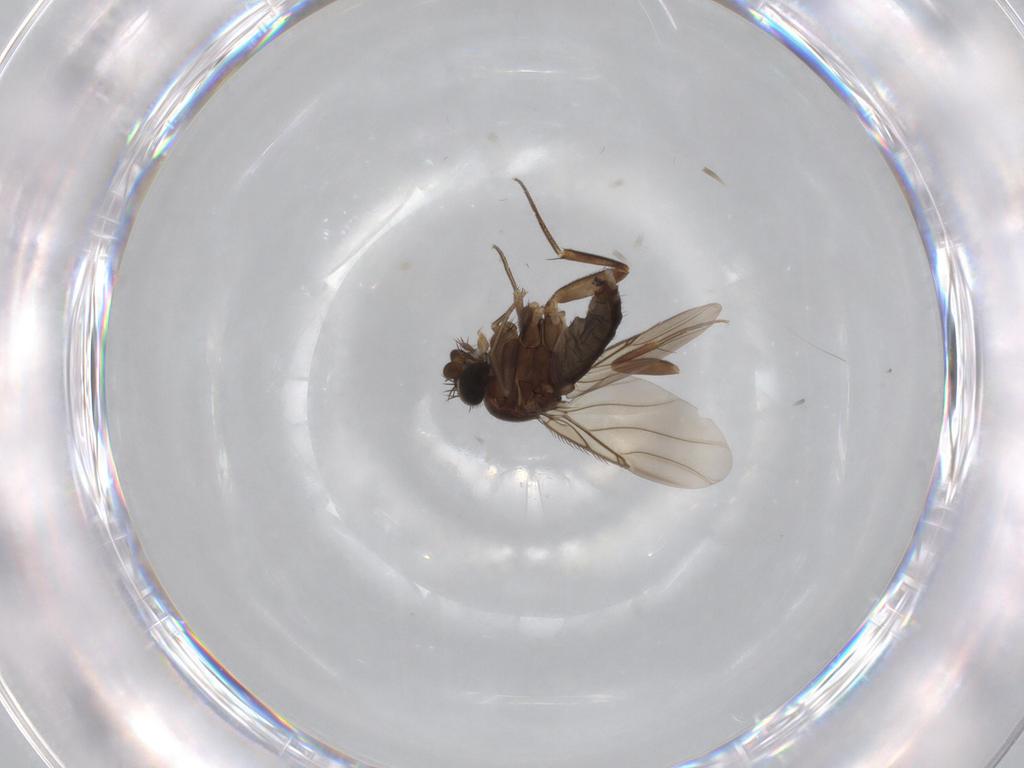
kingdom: Animalia
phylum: Arthropoda
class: Insecta
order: Diptera
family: Phoridae
